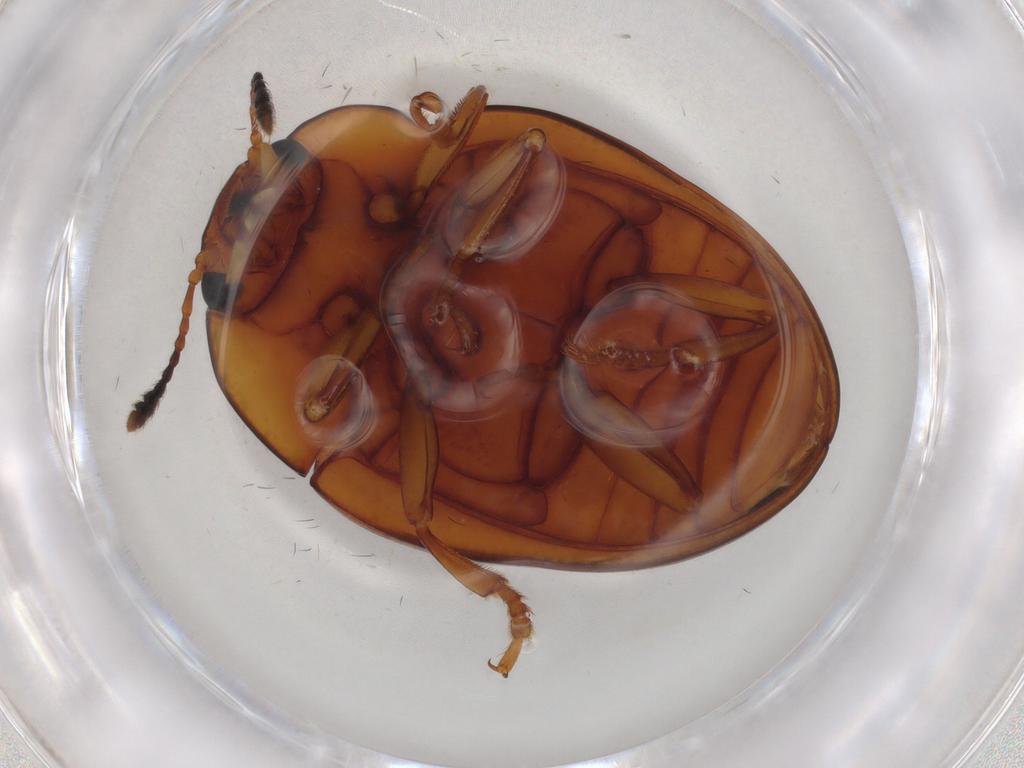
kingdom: Animalia
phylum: Arthropoda
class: Insecta
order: Coleoptera
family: Erotylidae
